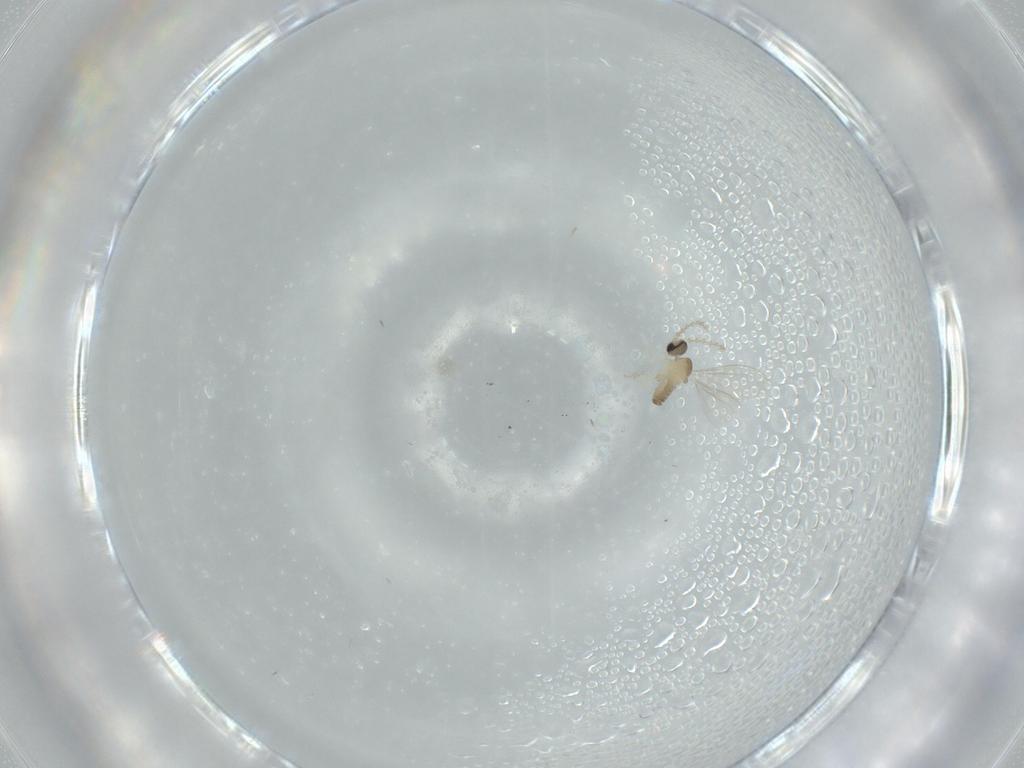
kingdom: Animalia
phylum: Arthropoda
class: Insecta
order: Diptera
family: Cecidomyiidae
